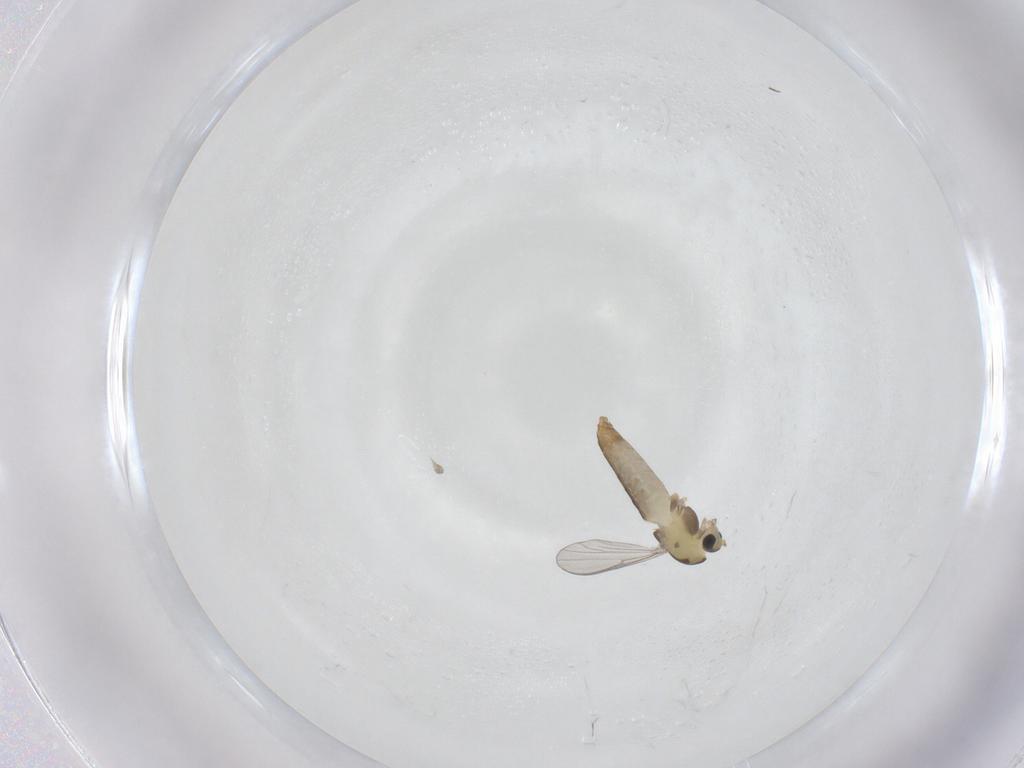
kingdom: Animalia
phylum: Arthropoda
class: Insecta
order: Diptera
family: Chironomidae
